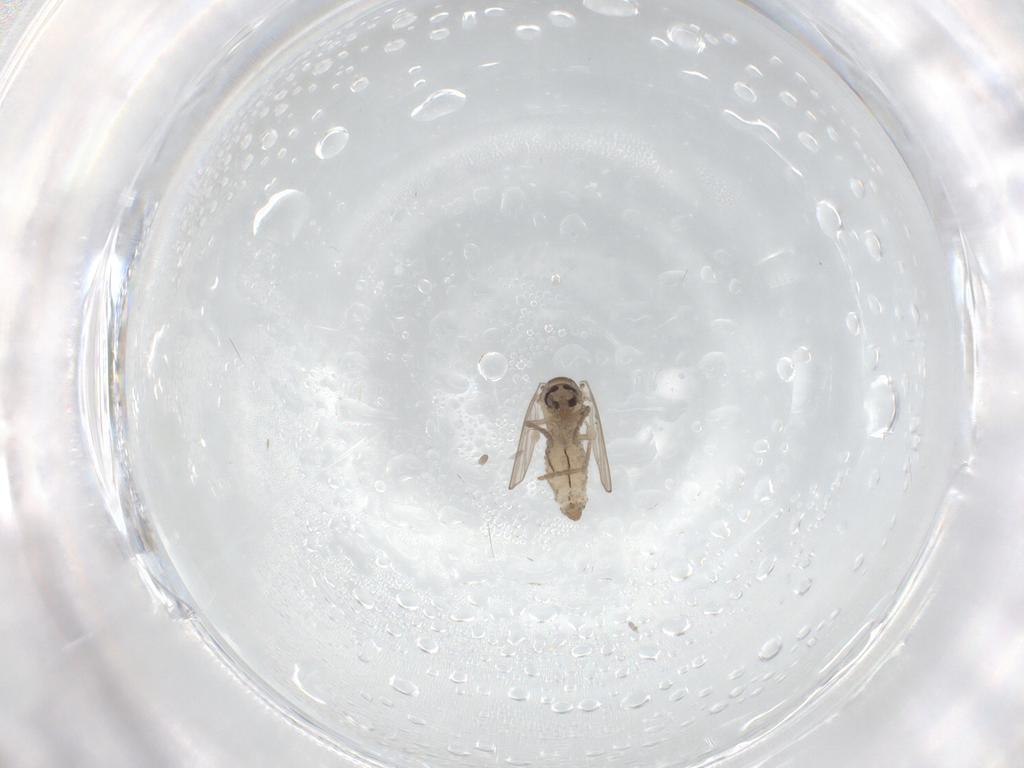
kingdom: Animalia
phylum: Arthropoda
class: Insecta
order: Diptera
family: Psychodidae
